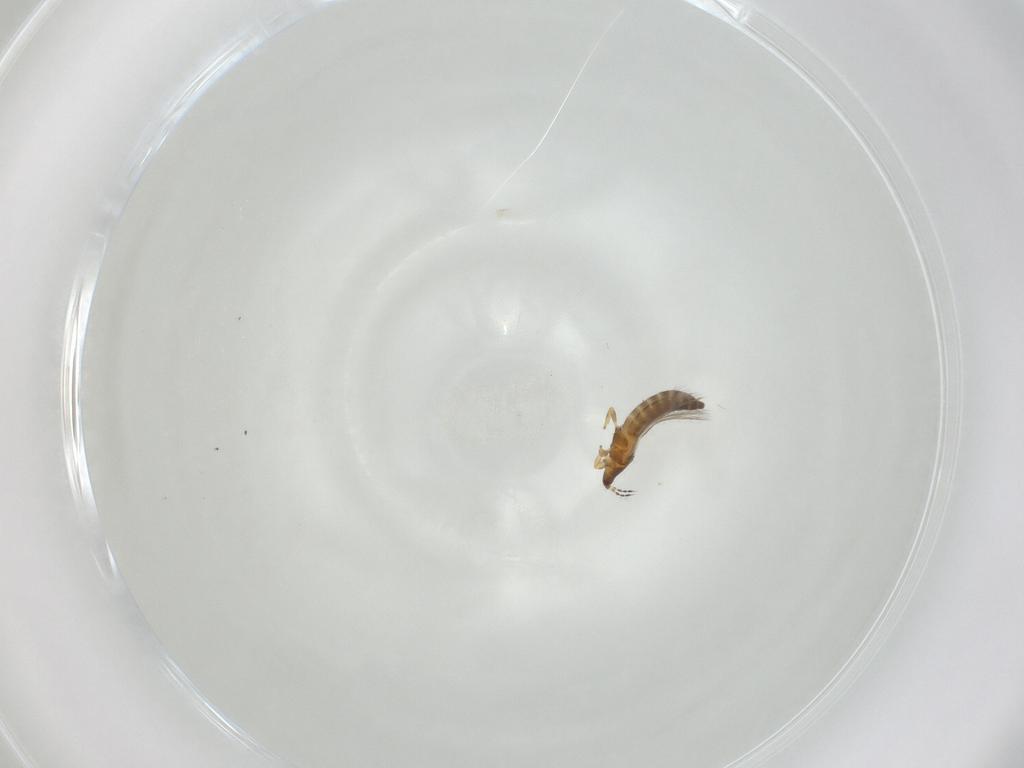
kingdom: Animalia
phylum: Arthropoda
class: Insecta
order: Thysanoptera
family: Thripidae
